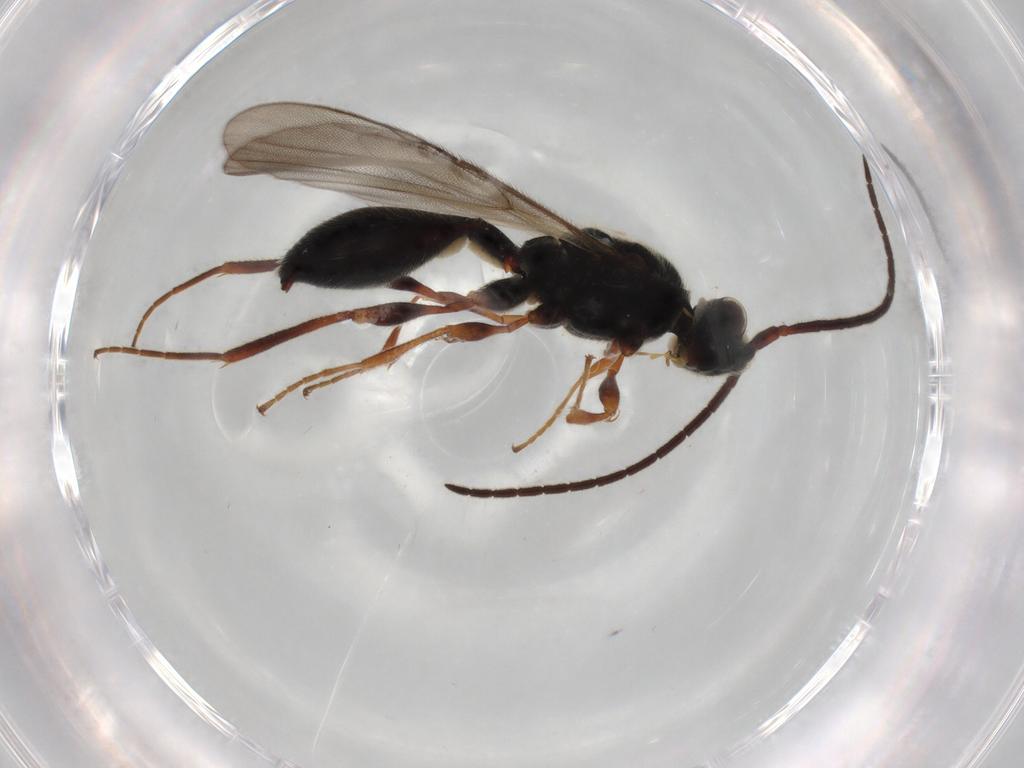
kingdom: Animalia
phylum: Arthropoda
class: Insecta
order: Hymenoptera
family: Diapriidae
